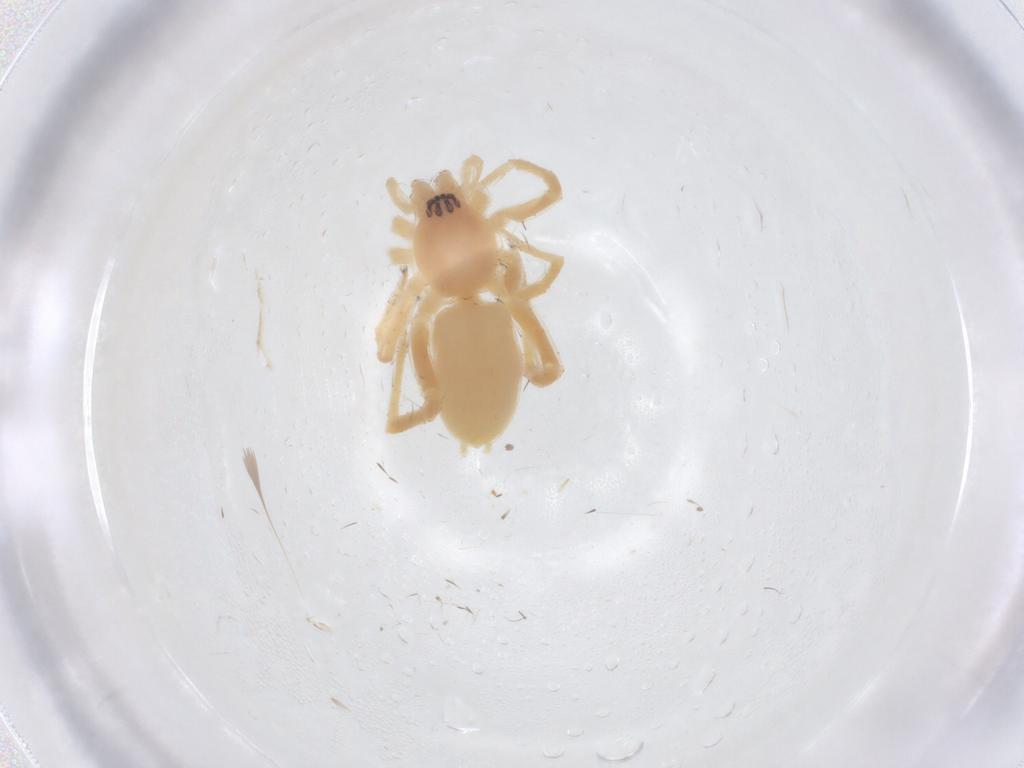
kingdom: Animalia
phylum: Arthropoda
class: Arachnida
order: Araneae
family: Anyphaenidae
